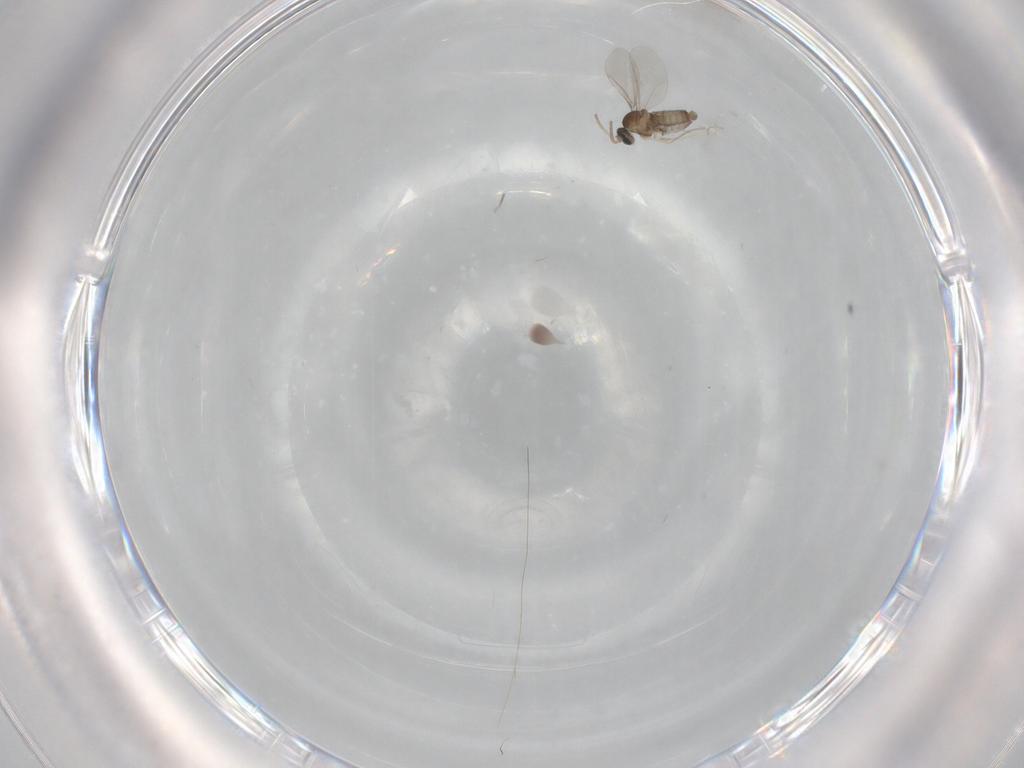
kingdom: Animalia
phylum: Arthropoda
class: Insecta
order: Diptera
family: Cecidomyiidae
